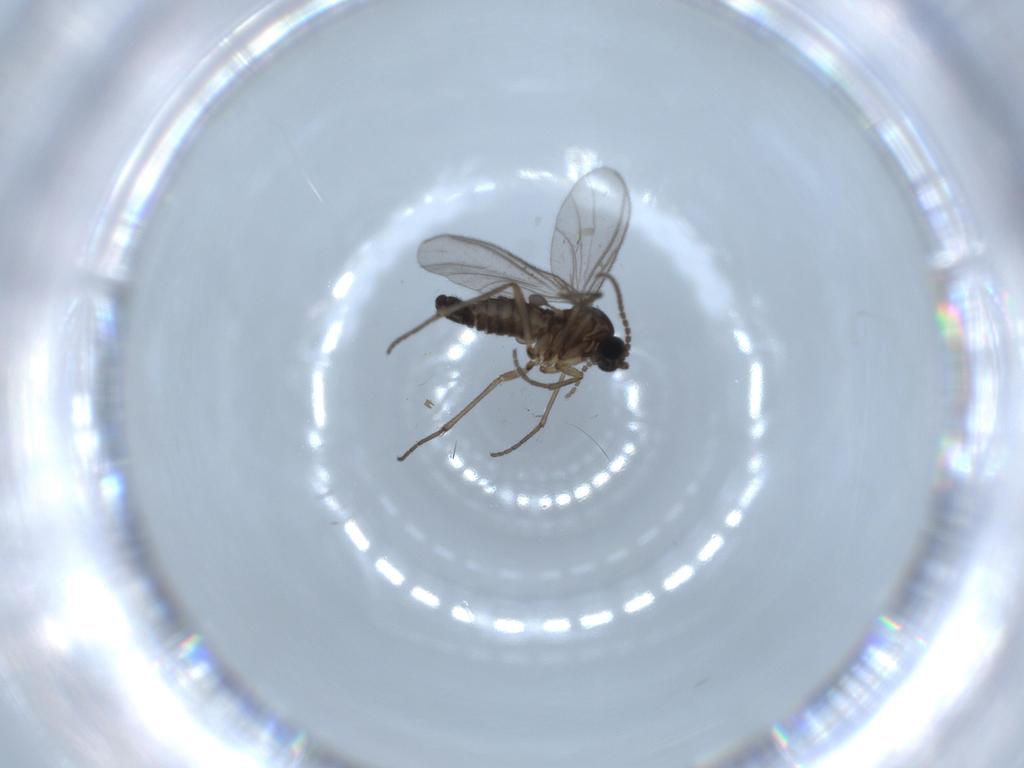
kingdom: Animalia
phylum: Arthropoda
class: Insecta
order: Diptera
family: Sciaridae
